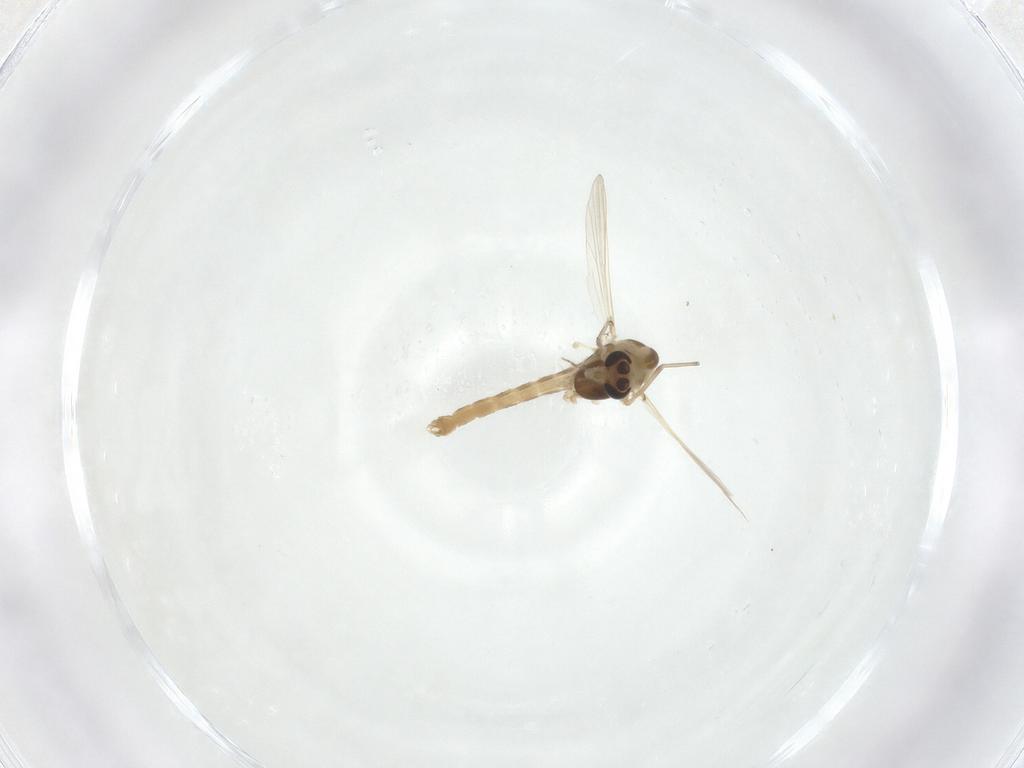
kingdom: Animalia
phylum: Arthropoda
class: Insecta
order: Diptera
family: Chironomidae
